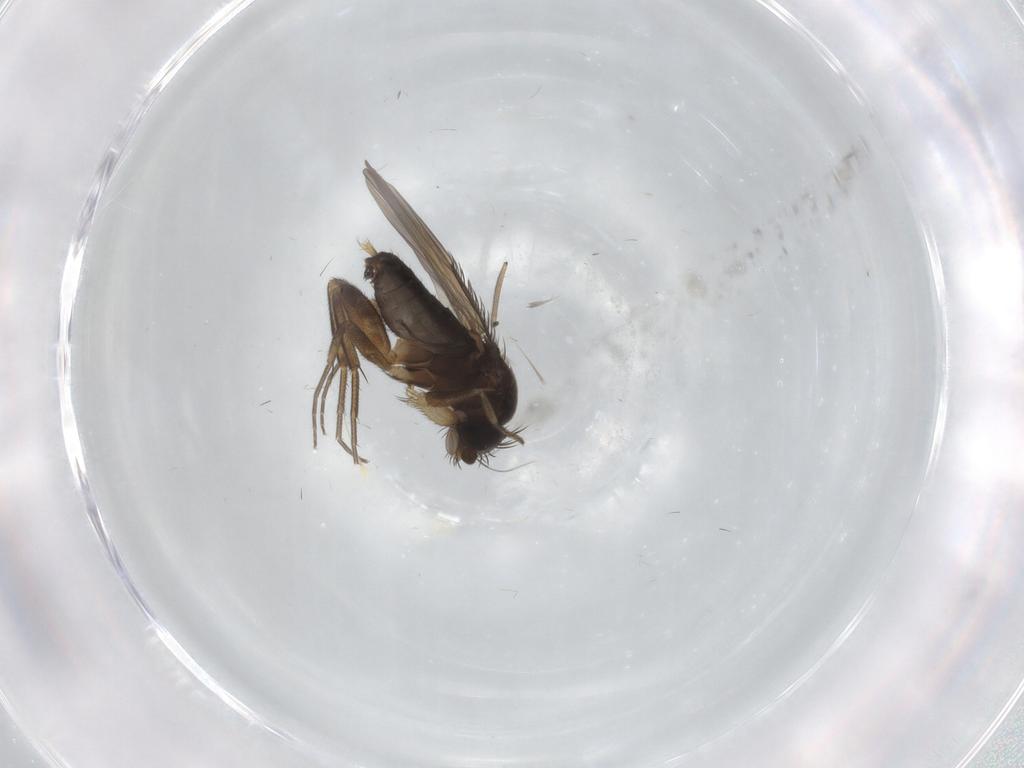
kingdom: Animalia
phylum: Arthropoda
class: Insecta
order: Diptera
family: Phoridae
